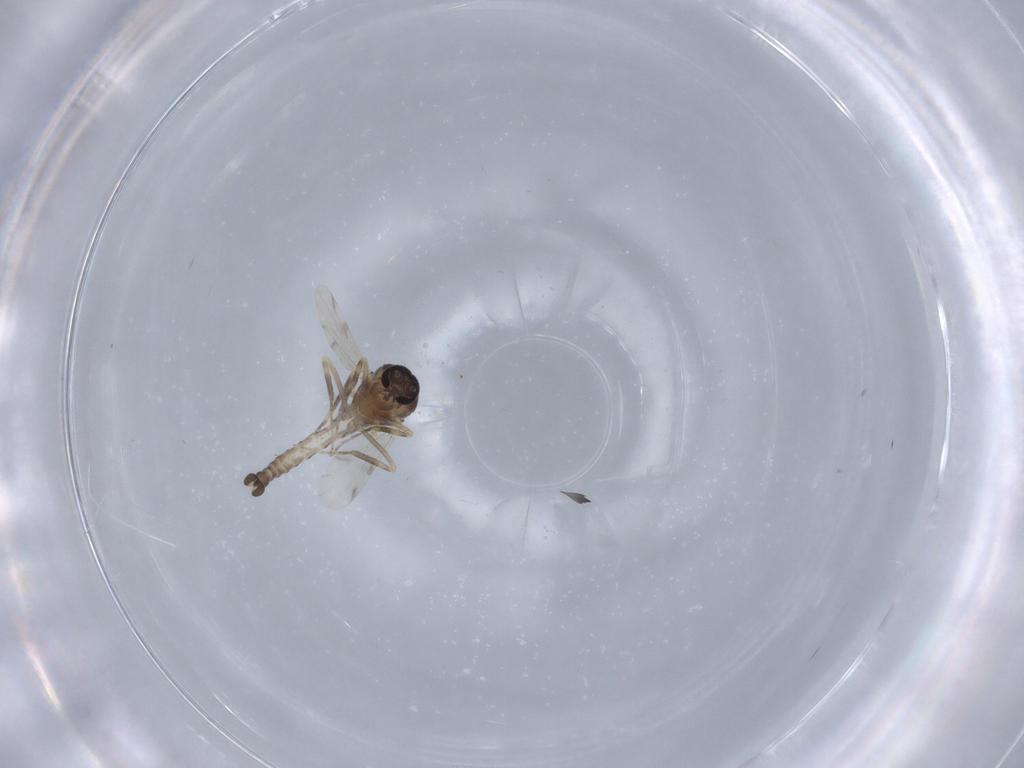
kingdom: Animalia
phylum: Arthropoda
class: Insecta
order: Diptera
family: Ceratopogonidae
